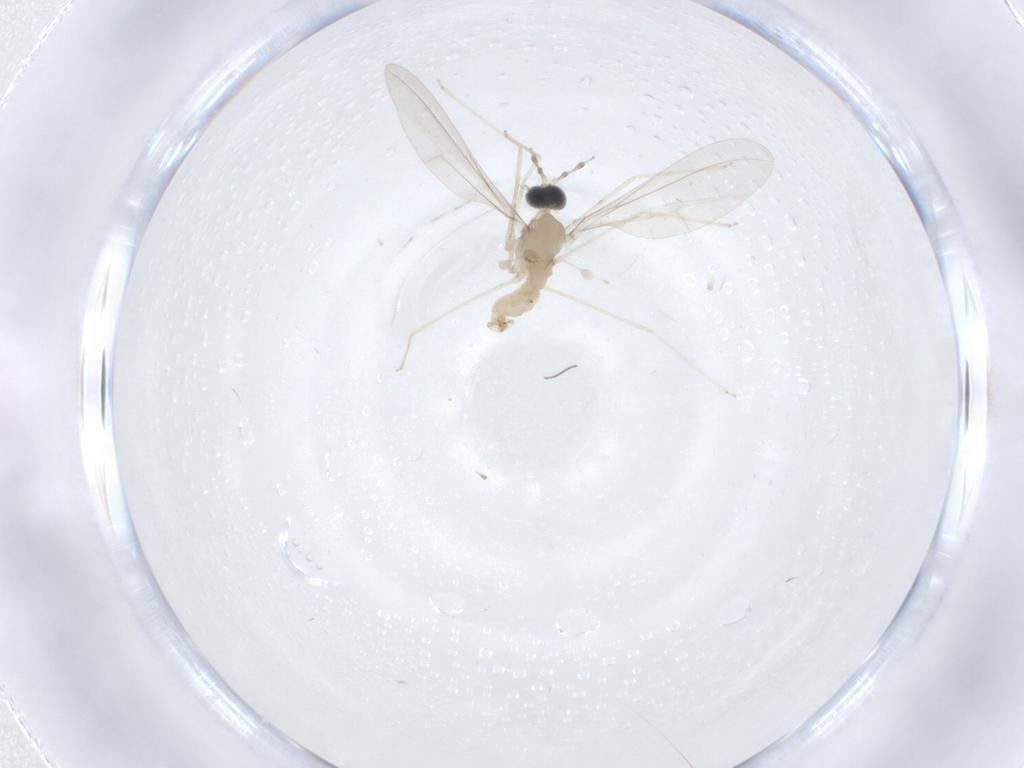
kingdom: Animalia
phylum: Arthropoda
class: Insecta
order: Diptera
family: Cecidomyiidae
